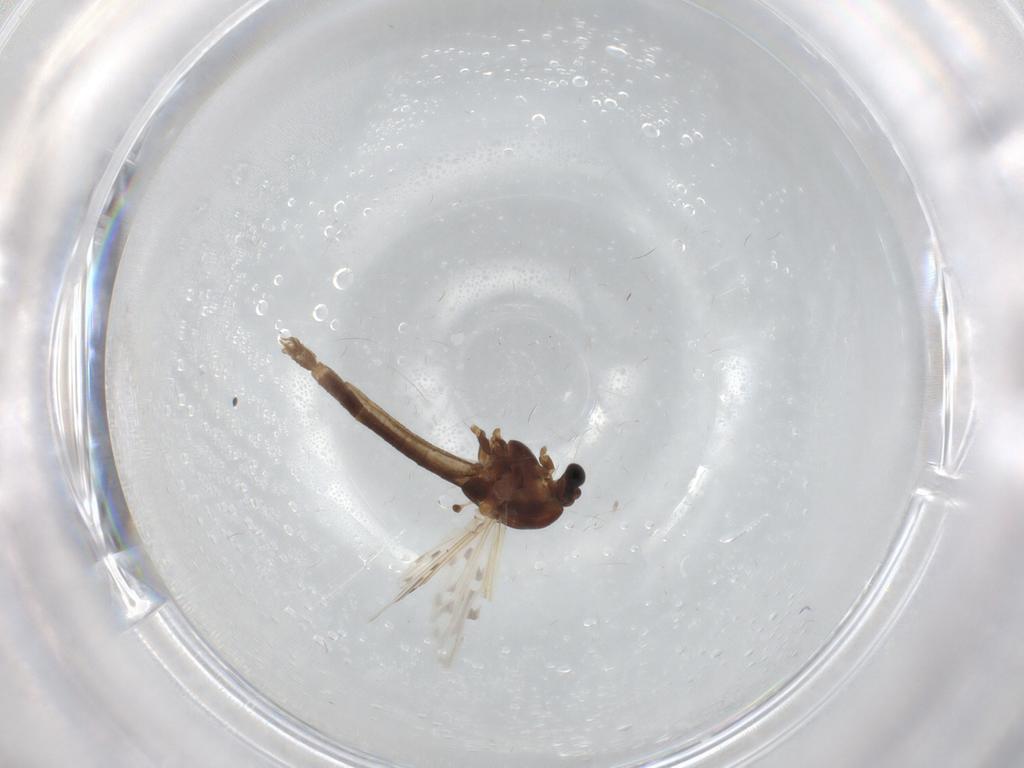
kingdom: Animalia
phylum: Arthropoda
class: Insecta
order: Diptera
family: Chironomidae
